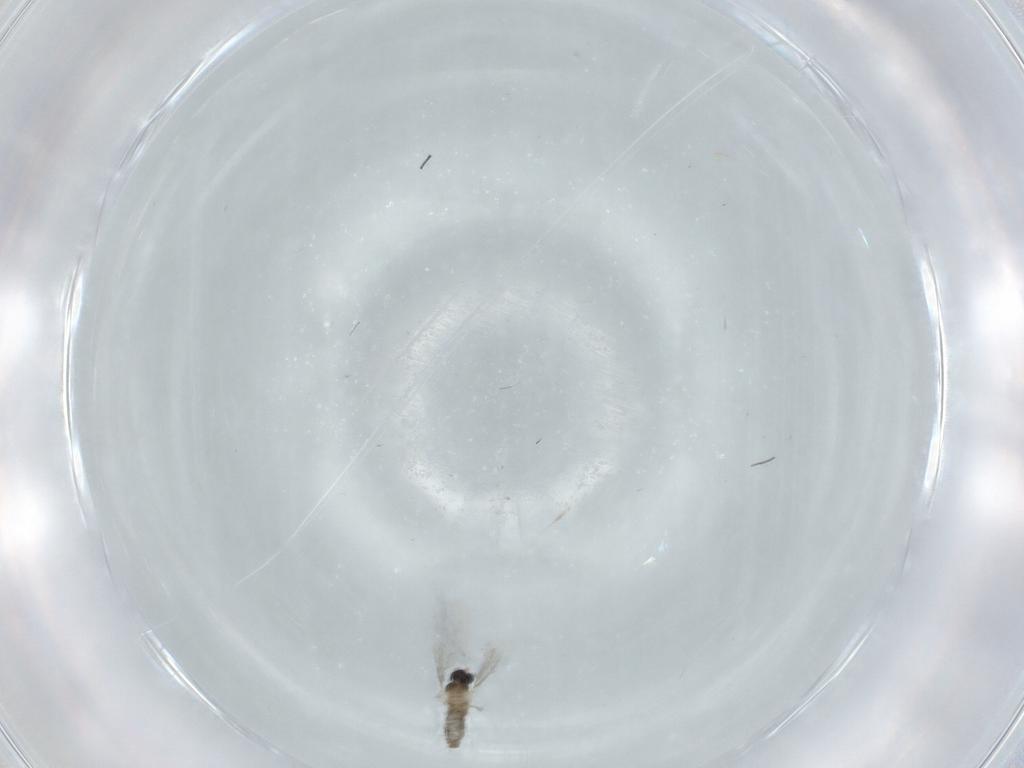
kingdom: Animalia
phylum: Arthropoda
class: Insecta
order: Diptera
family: Cecidomyiidae
